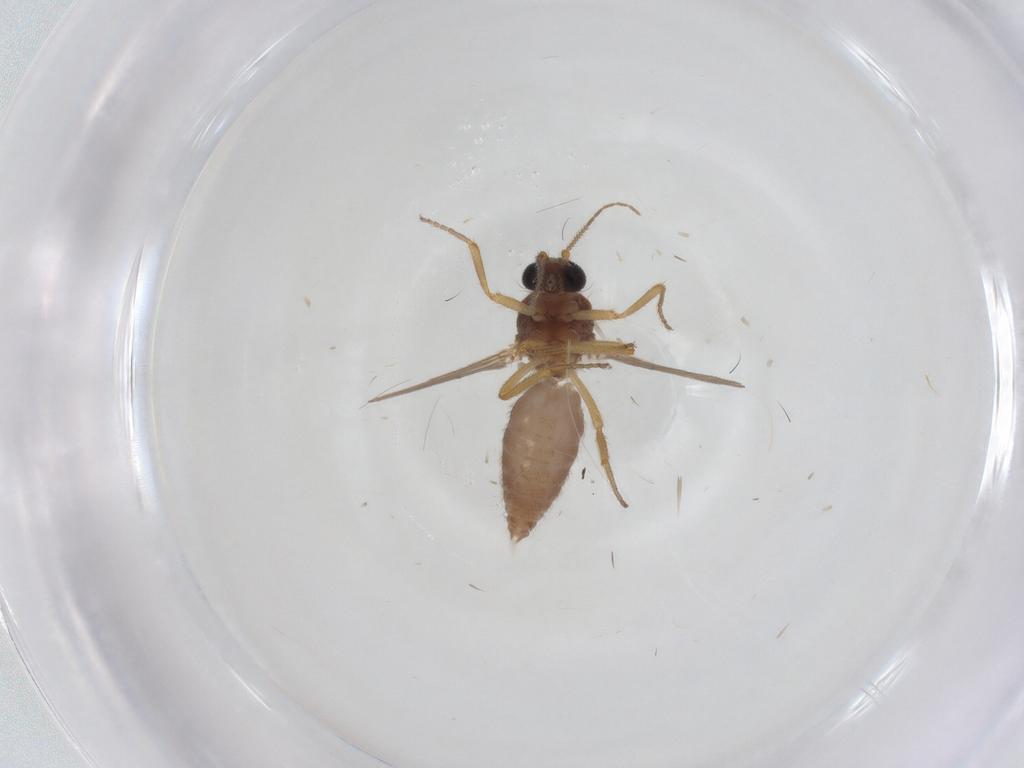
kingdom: Animalia
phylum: Arthropoda
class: Insecta
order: Diptera
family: Ceratopogonidae
